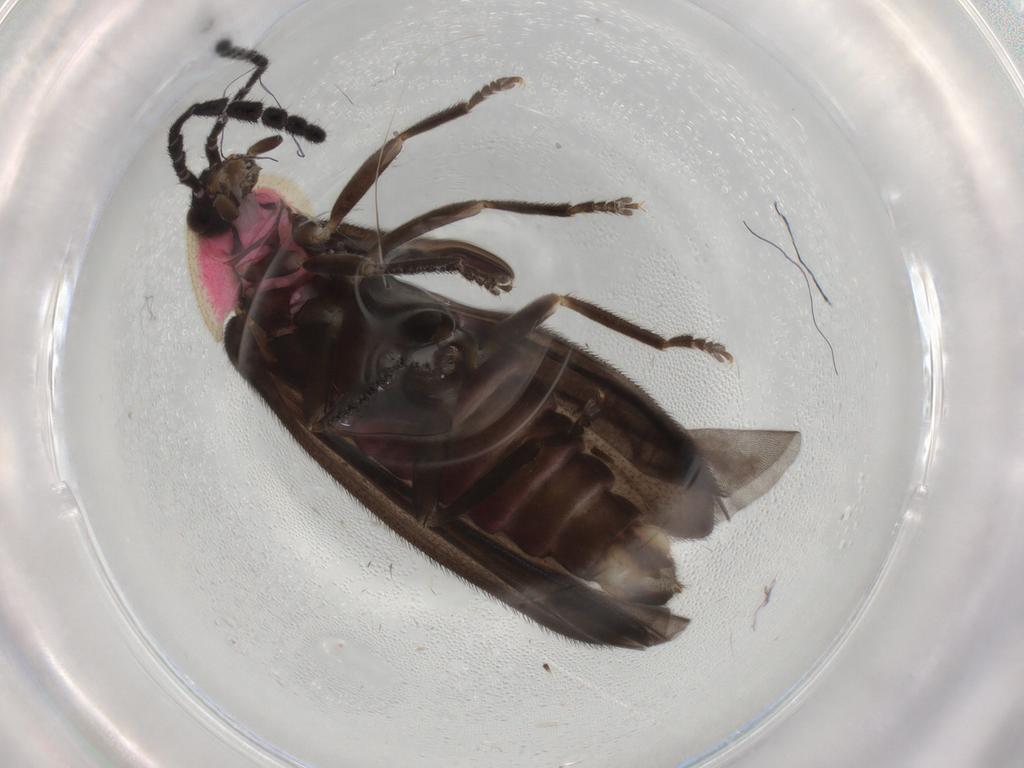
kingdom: Animalia
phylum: Arthropoda
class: Insecta
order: Coleoptera
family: Lampyridae
